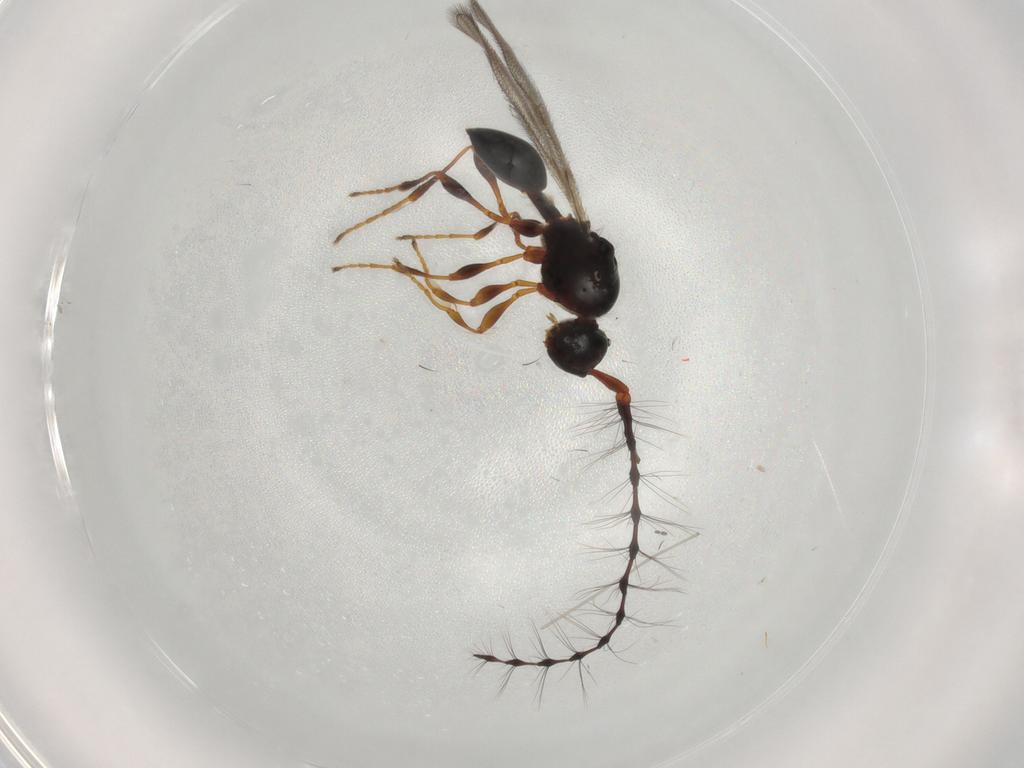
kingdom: Animalia
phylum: Arthropoda
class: Insecta
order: Hymenoptera
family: Diapriidae
